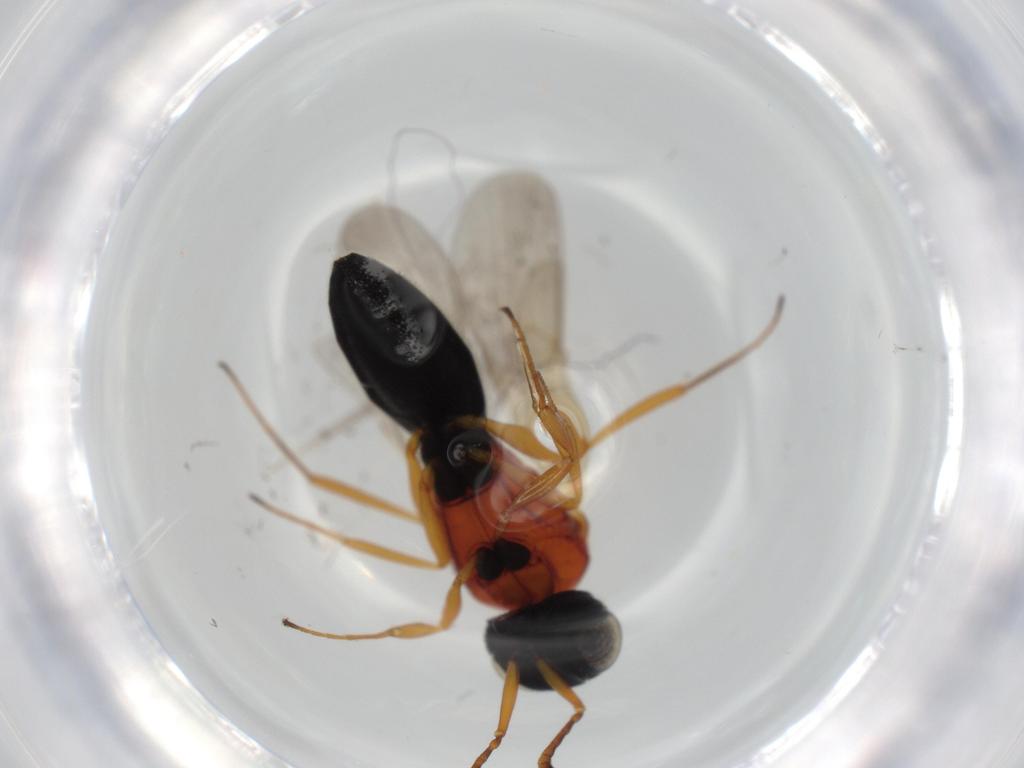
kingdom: Animalia
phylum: Arthropoda
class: Insecta
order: Hymenoptera
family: Scelionidae
